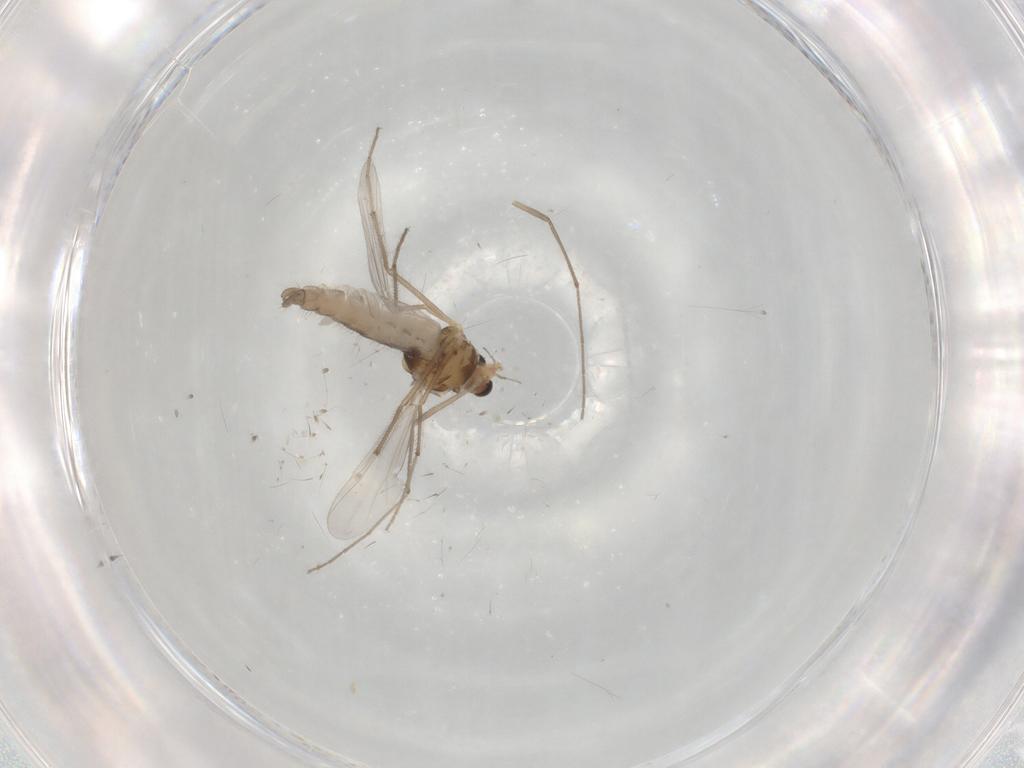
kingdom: Animalia
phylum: Arthropoda
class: Insecta
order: Diptera
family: Chironomidae
